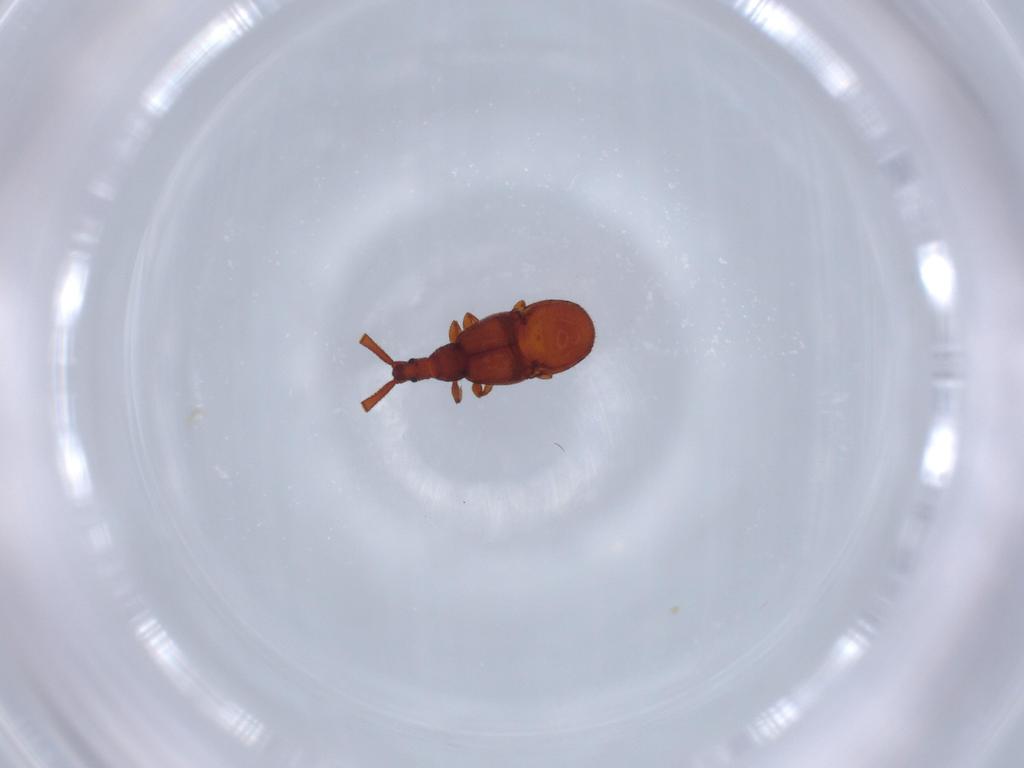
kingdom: Animalia
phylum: Arthropoda
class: Insecta
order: Coleoptera
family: Staphylinidae
